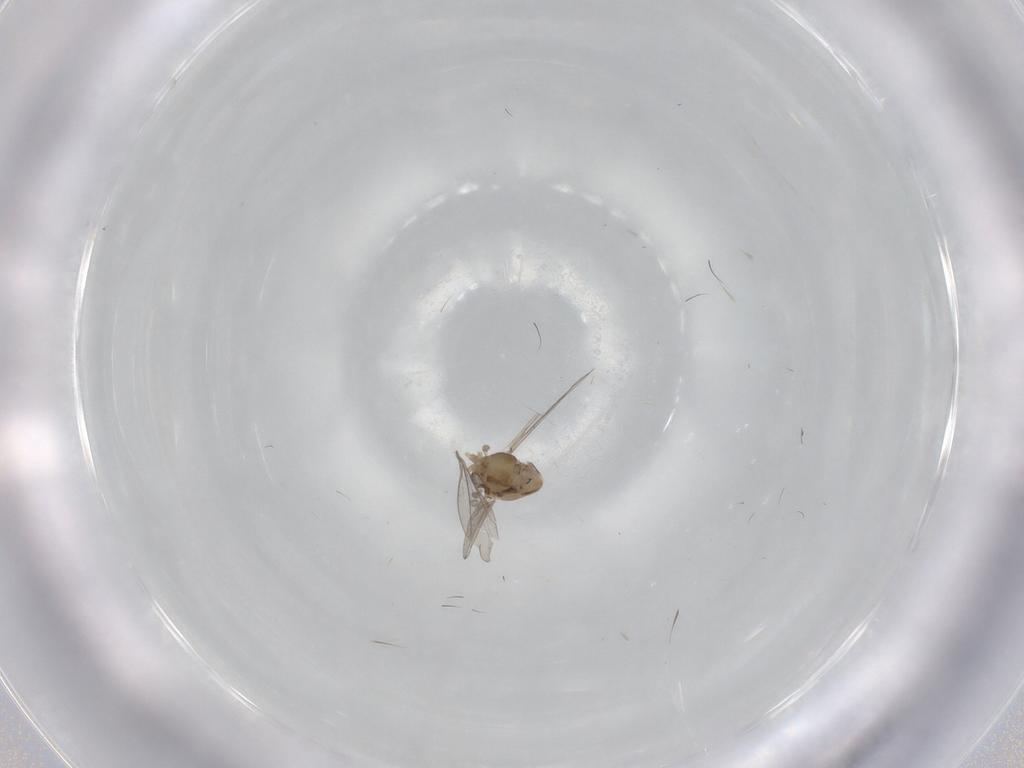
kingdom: Animalia
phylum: Arthropoda
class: Insecta
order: Diptera
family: Chironomidae
